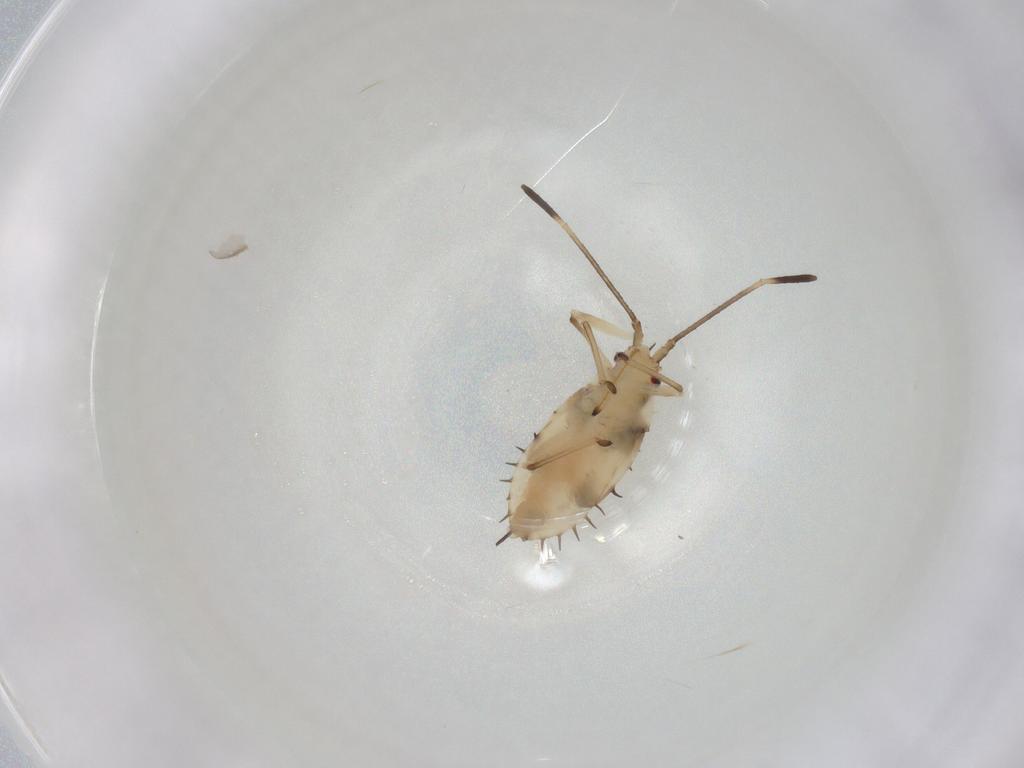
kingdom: Animalia
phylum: Arthropoda
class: Insecta
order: Hemiptera
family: Tingidae
